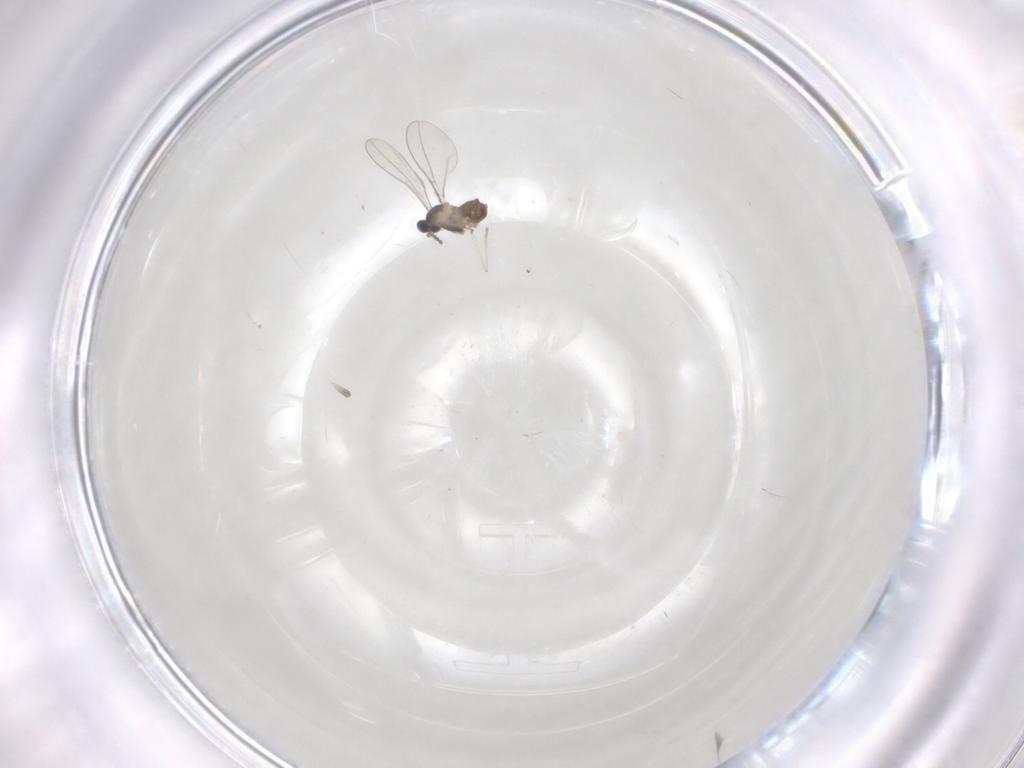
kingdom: Animalia
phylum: Arthropoda
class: Insecta
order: Diptera
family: Cecidomyiidae
